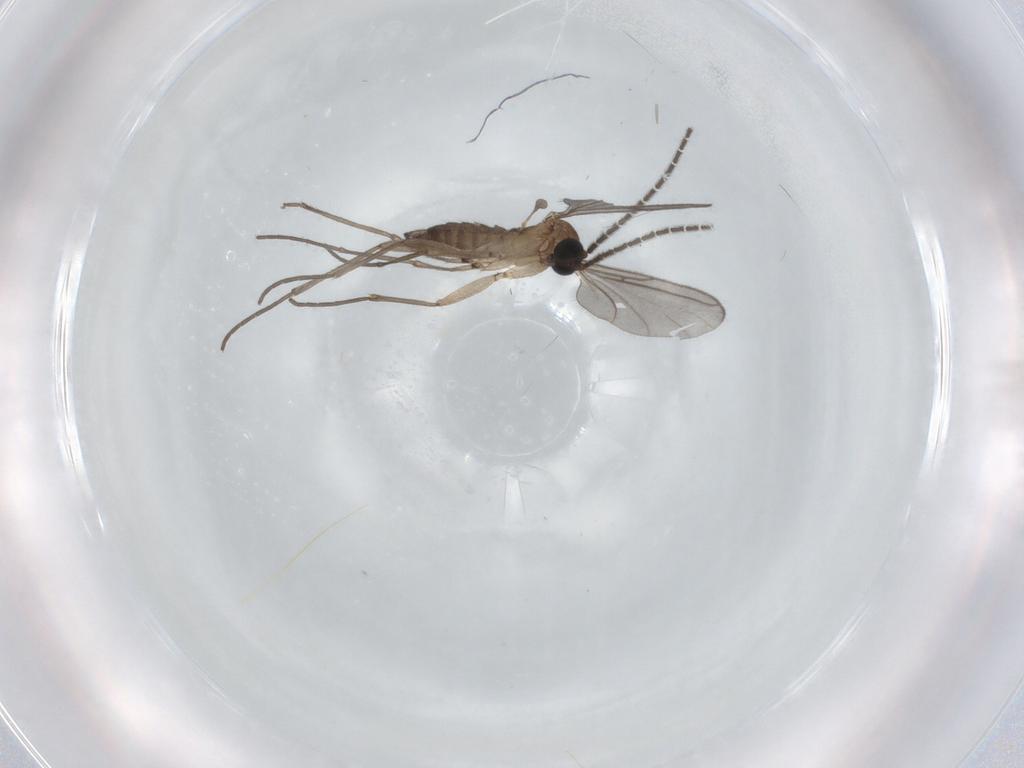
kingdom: Animalia
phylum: Arthropoda
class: Insecta
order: Diptera
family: Sciaridae
